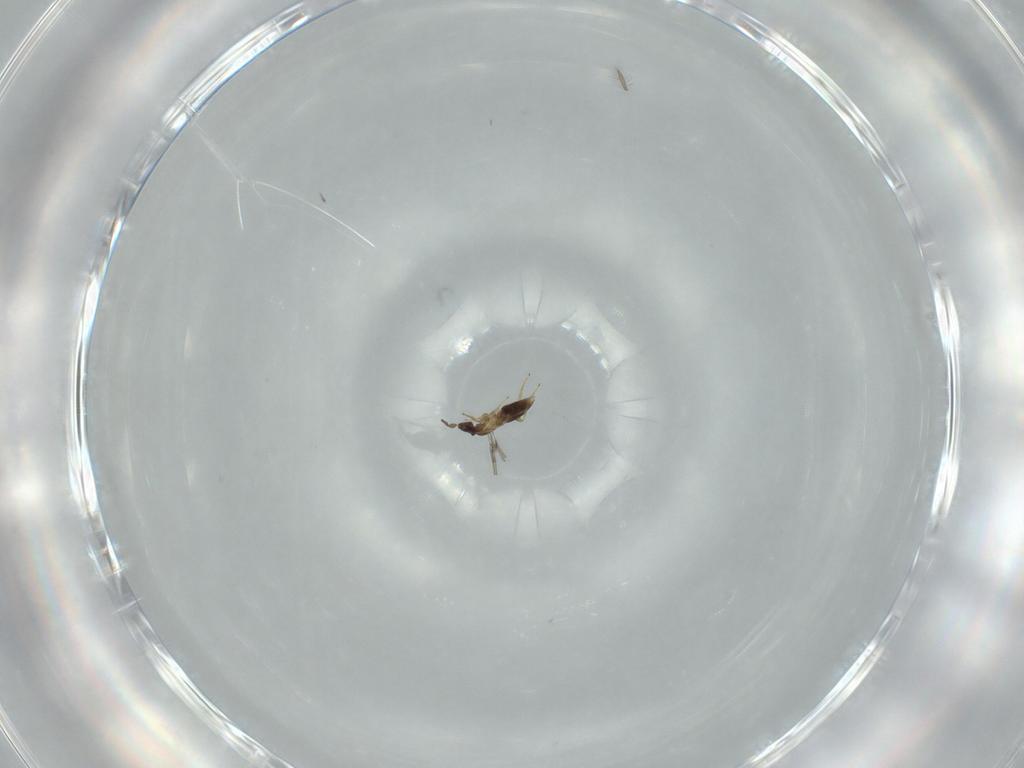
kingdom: Animalia
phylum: Arthropoda
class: Insecta
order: Hymenoptera
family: Mymaridae
